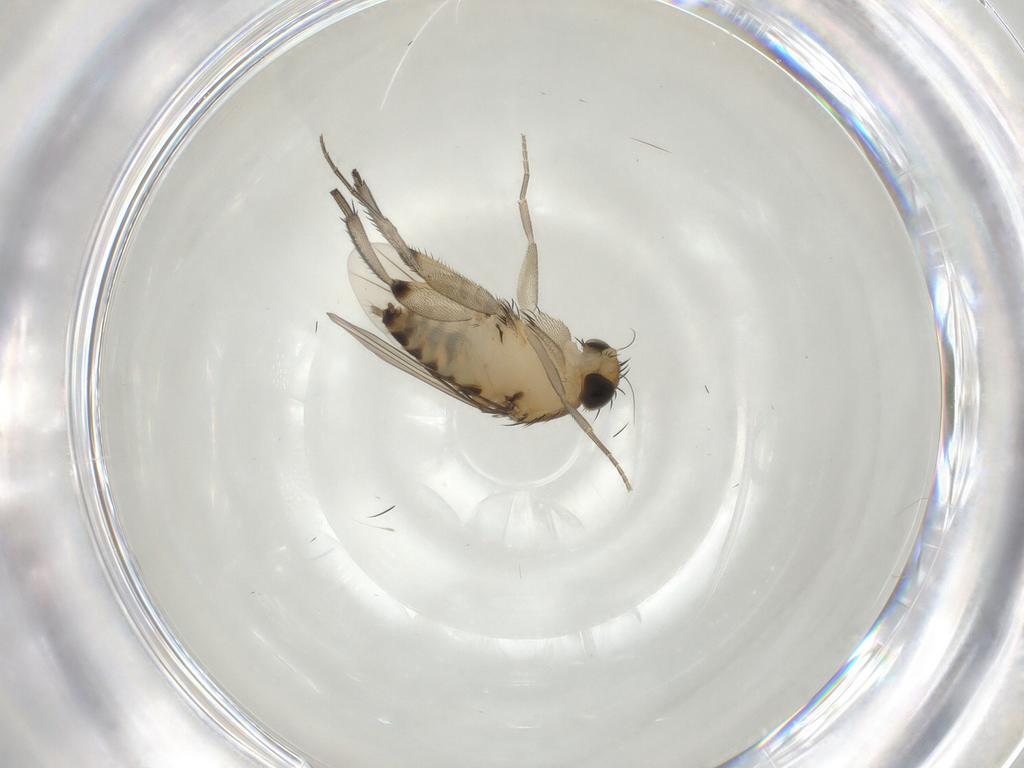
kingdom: Animalia
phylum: Arthropoda
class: Insecta
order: Diptera
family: Phoridae
